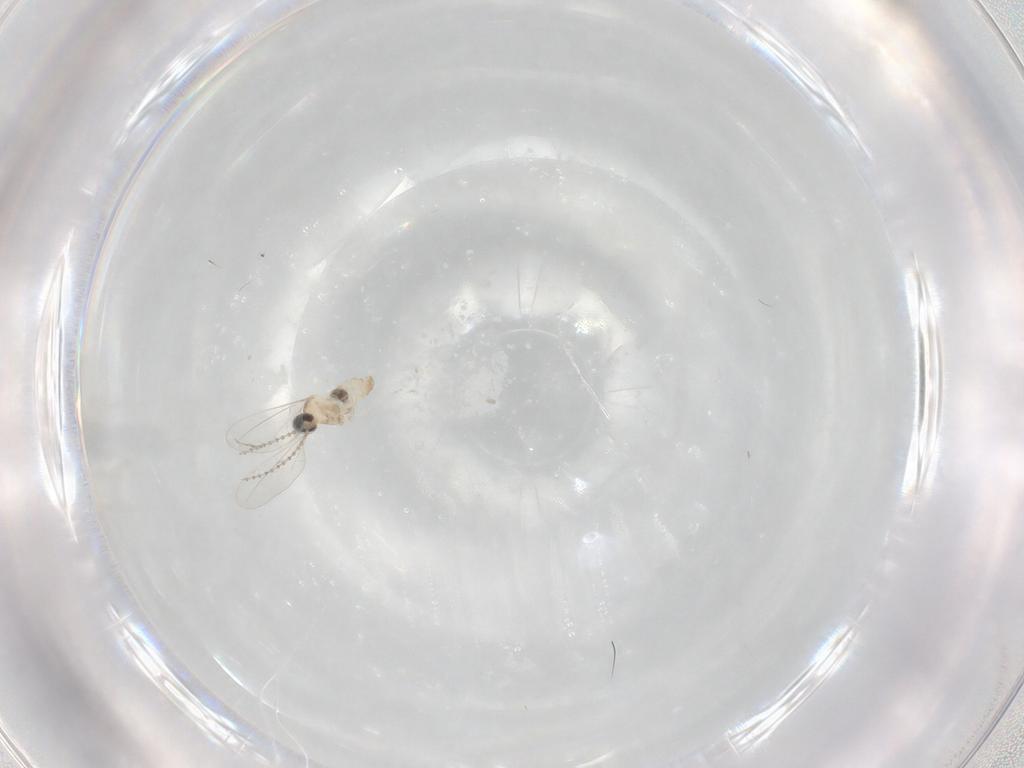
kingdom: Animalia
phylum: Arthropoda
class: Insecta
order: Diptera
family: Cecidomyiidae
